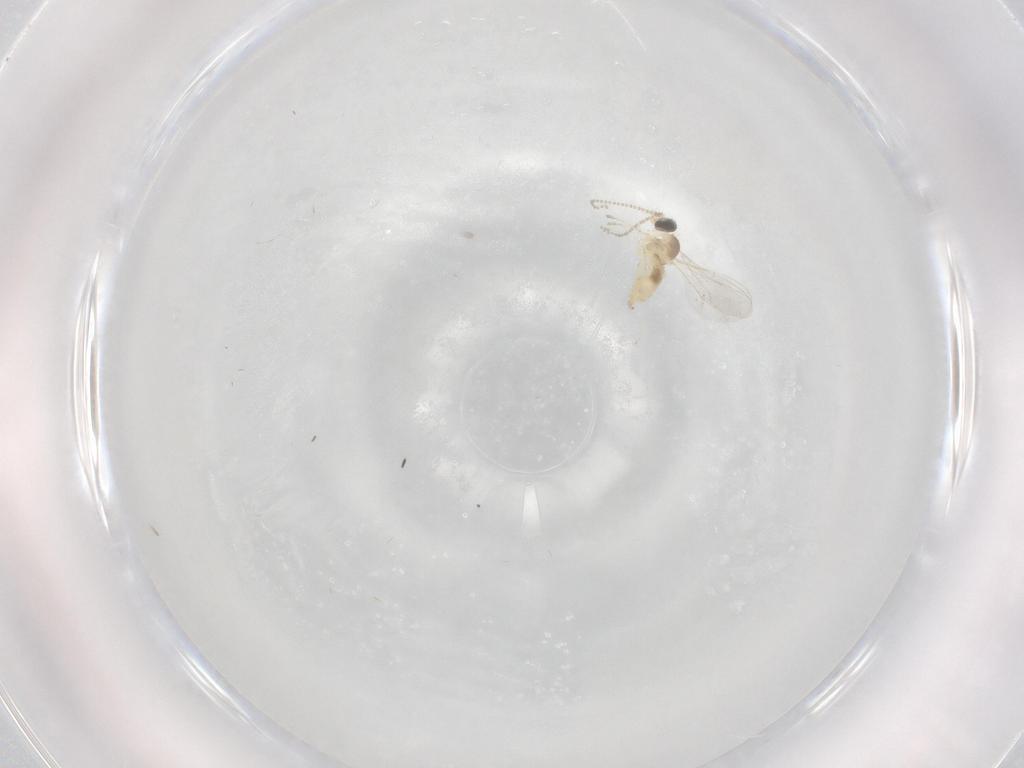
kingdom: Animalia
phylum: Arthropoda
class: Insecta
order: Diptera
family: Cecidomyiidae
